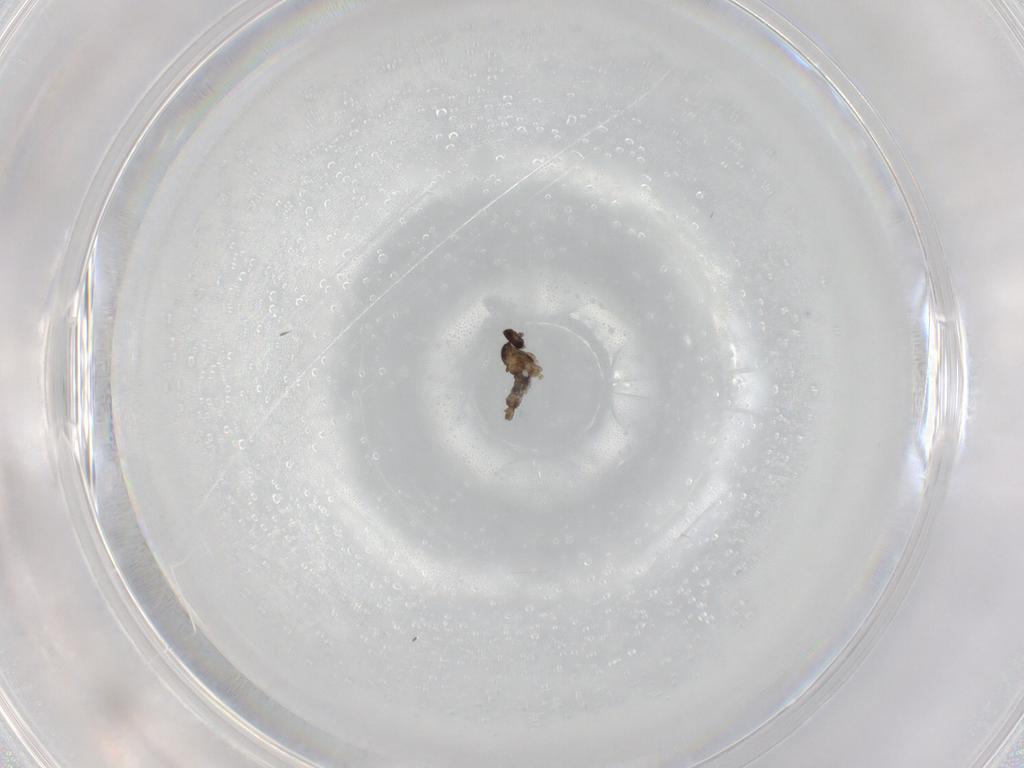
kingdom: Animalia
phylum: Arthropoda
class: Insecta
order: Diptera
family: Cecidomyiidae
